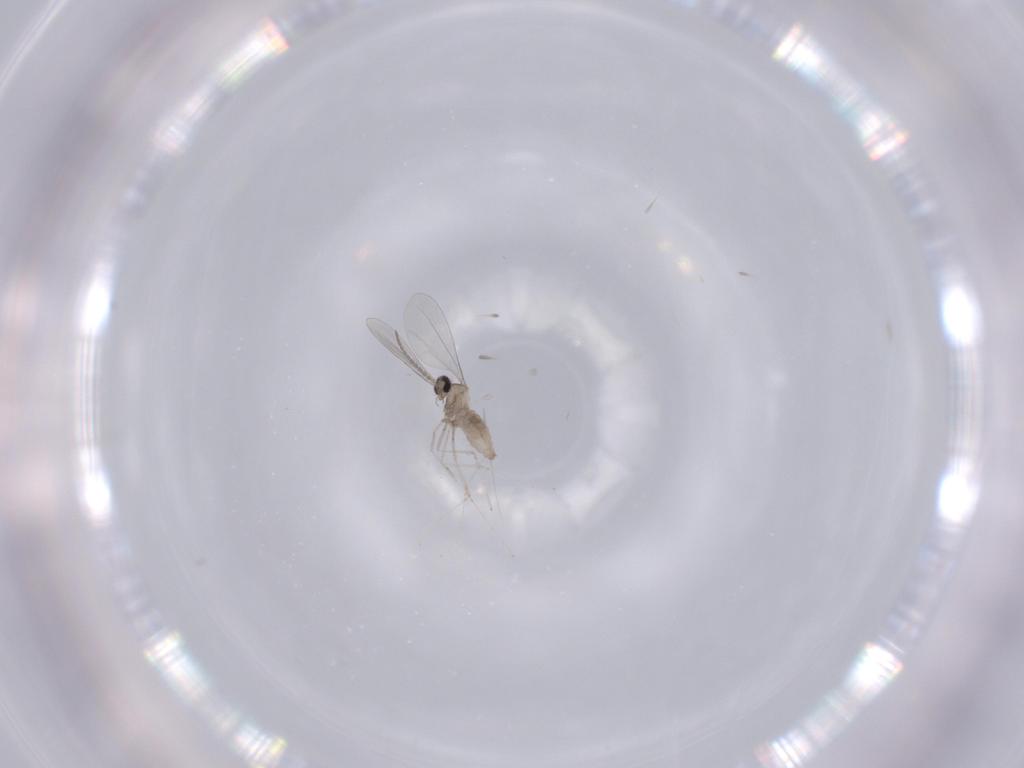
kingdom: Animalia
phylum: Arthropoda
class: Insecta
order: Diptera
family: Cecidomyiidae
